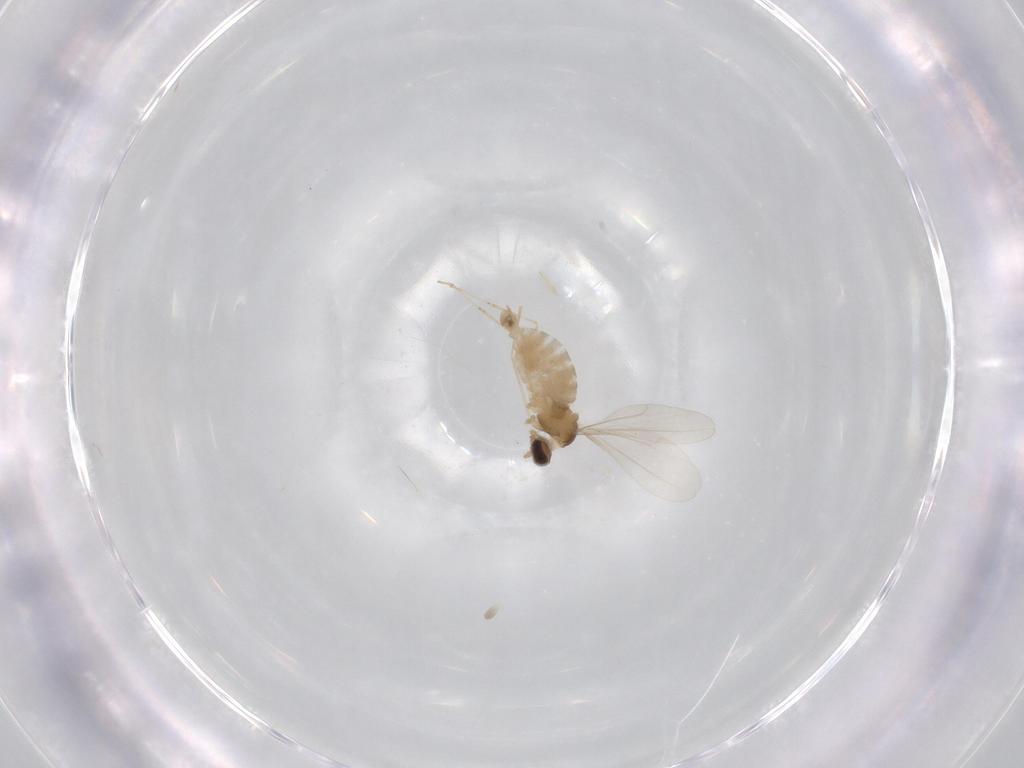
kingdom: Animalia
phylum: Arthropoda
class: Insecta
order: Diptera
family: Cecidomyiidae
